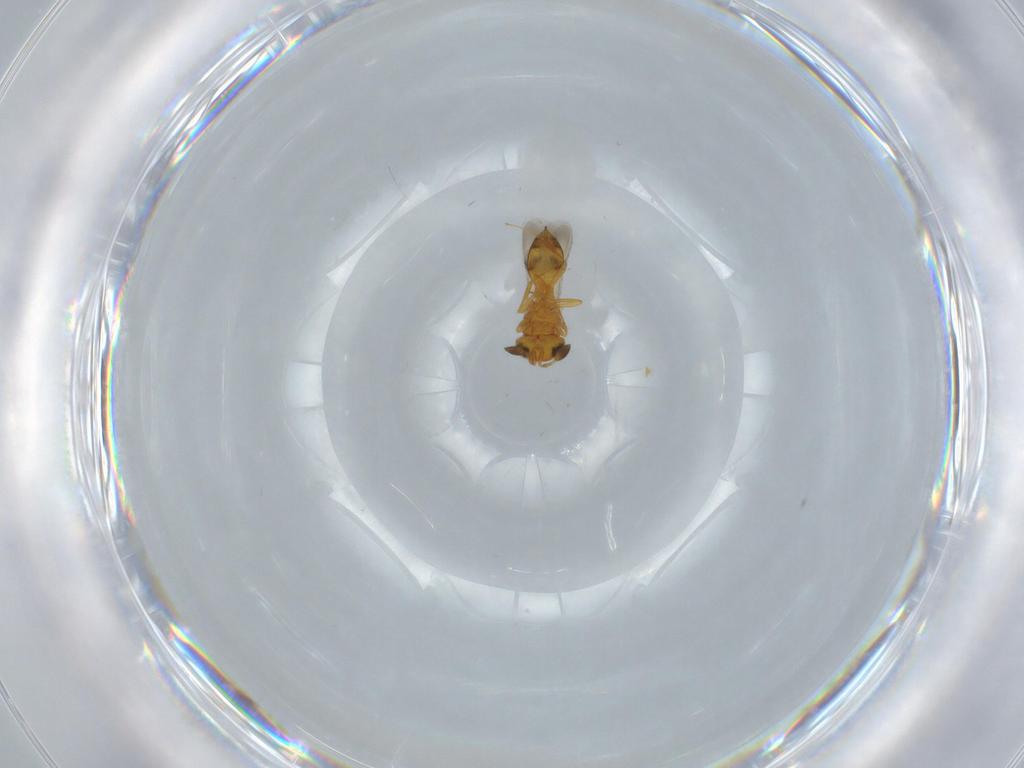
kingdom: Animalia
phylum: Arthropoda
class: Insecta
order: Hymenoptera
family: Scelionidae
